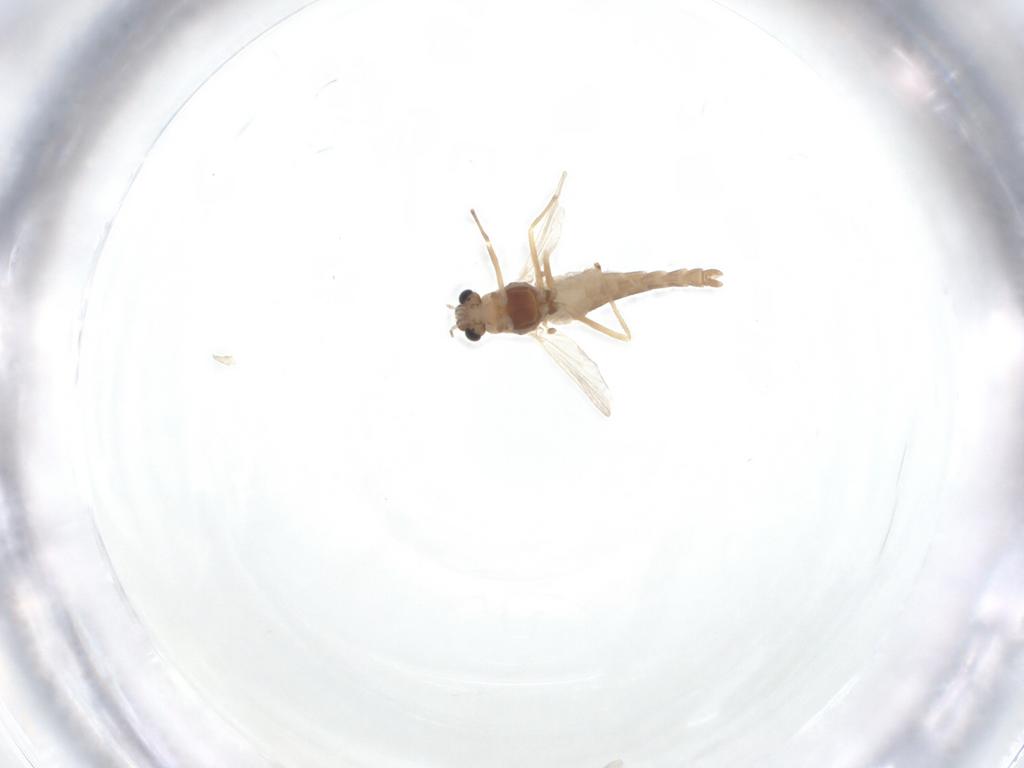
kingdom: Animalia
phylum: Arthropoda
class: Insecta
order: Diptera
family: Chironomidae
